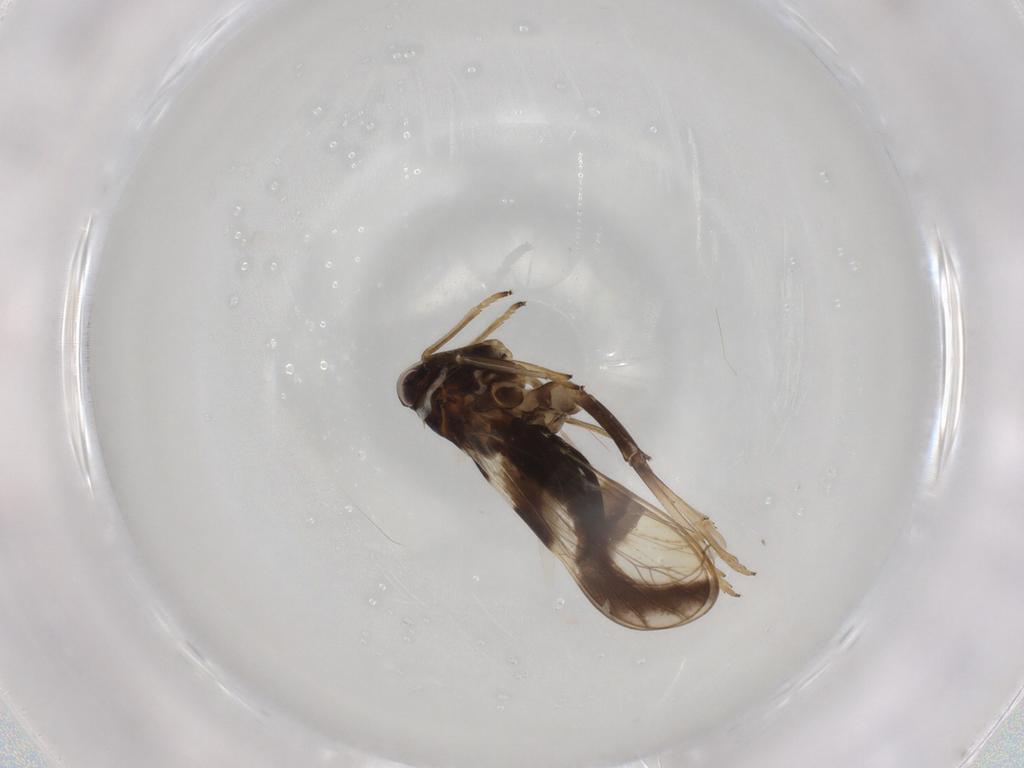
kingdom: Animalia
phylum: Arthropoda
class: Insecta
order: Hemiptera
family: Delphacidae
